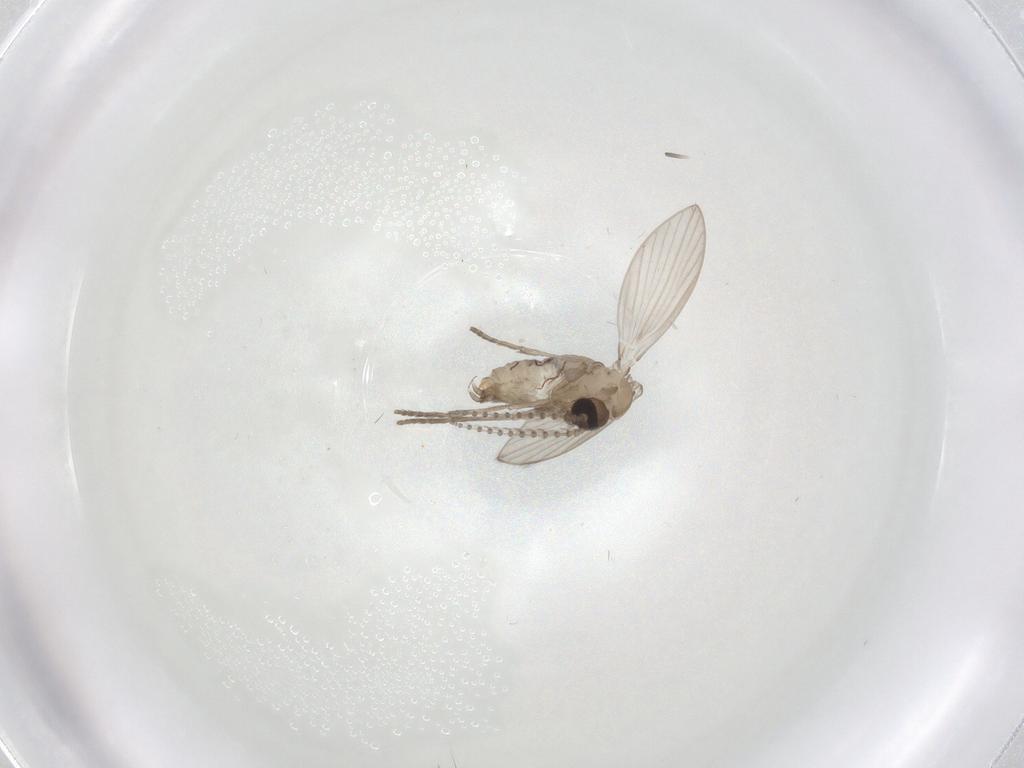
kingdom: Animalia
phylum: Arthropoda
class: Insecta
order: Diptera
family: Psychodidae
